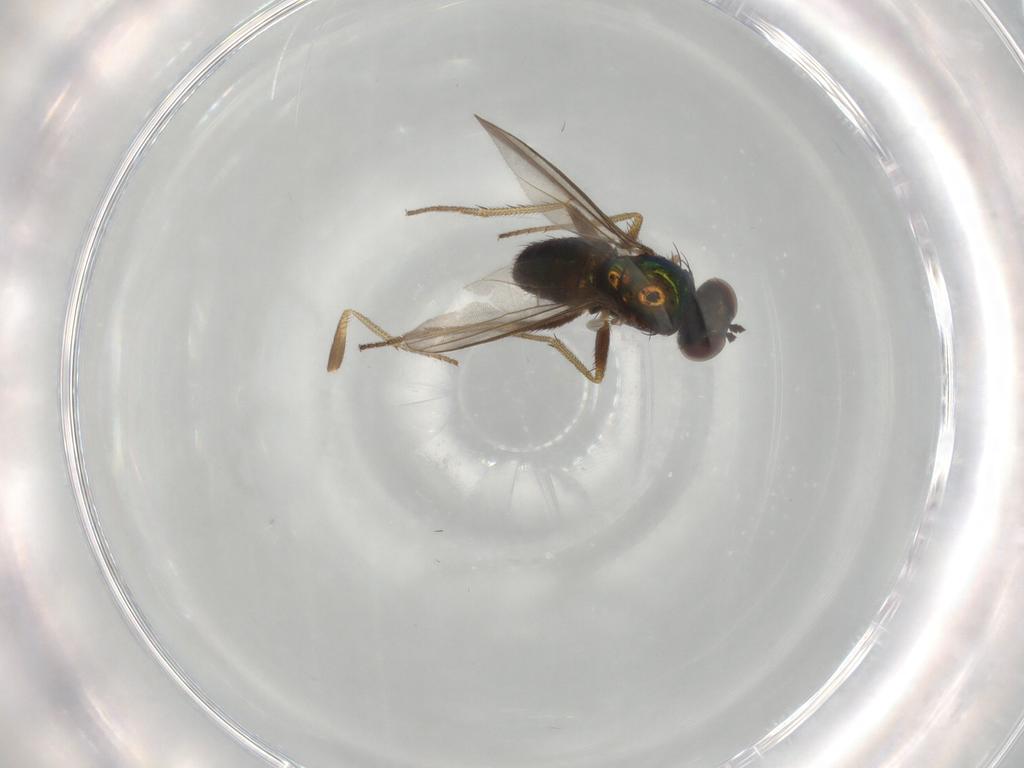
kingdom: Animalia
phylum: Arthropoda
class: Insecta
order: Diptera
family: Dolichopodidae
